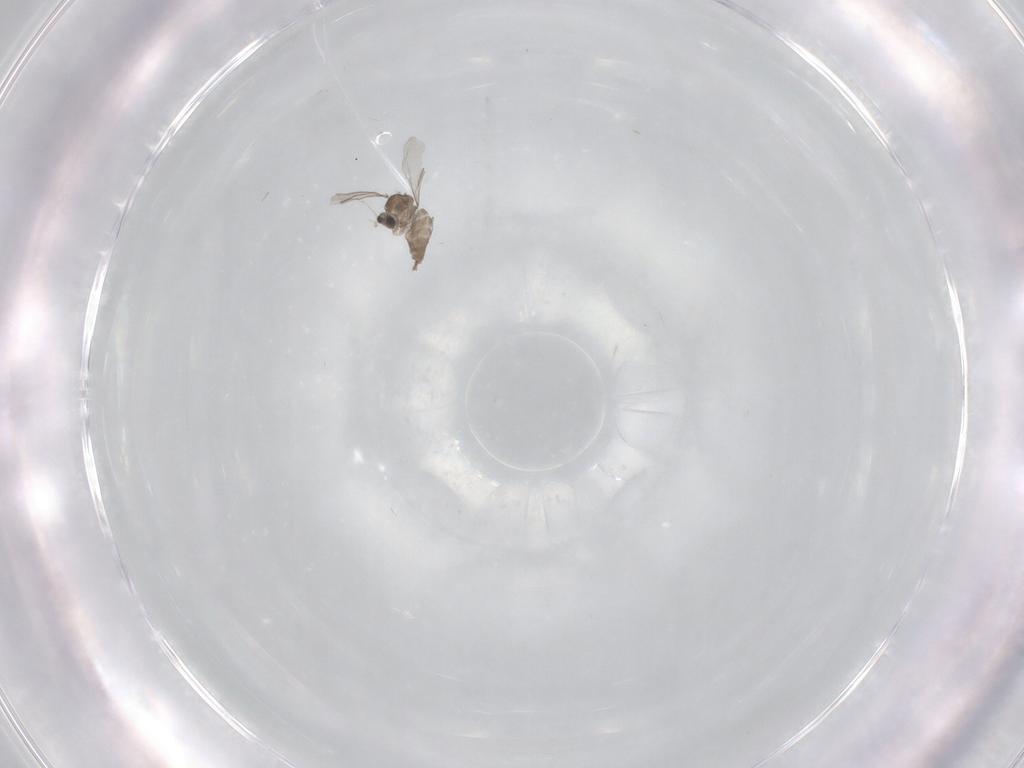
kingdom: Animalia
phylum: Arthropoda
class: Insecta
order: Diptera
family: Cecidomyiidae
